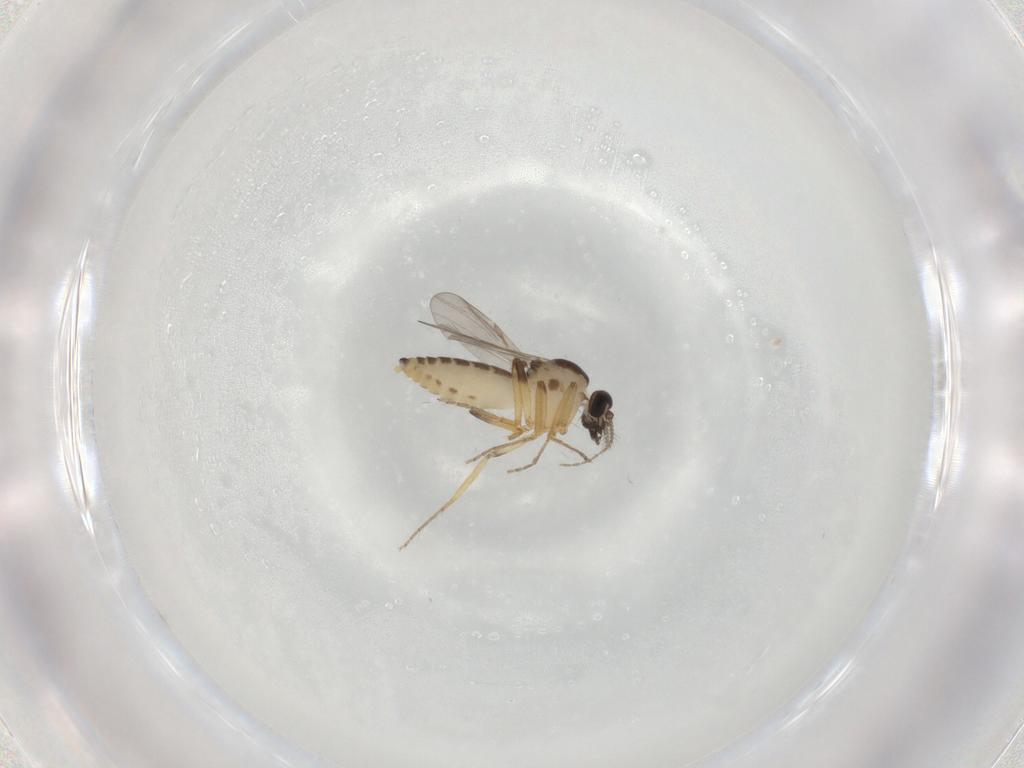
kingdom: Animalia
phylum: Arthropoda
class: Insecta
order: Diptera
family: Ceratopogonidae
